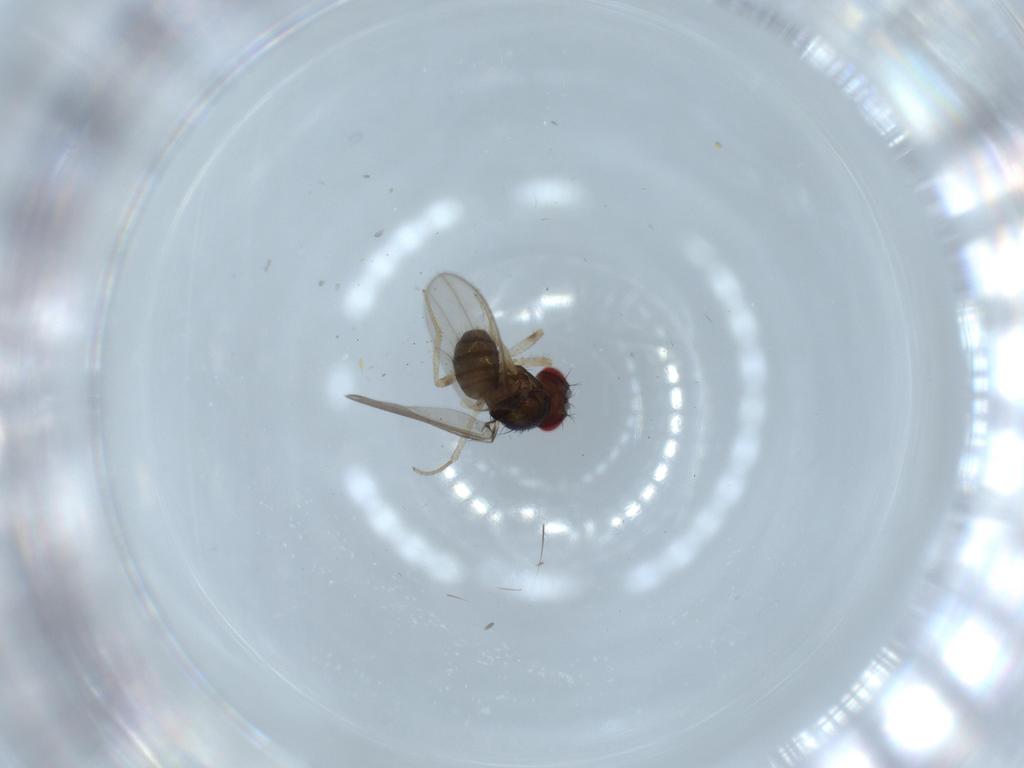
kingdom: Animalia
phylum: Arthropoda
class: Insecta
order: Diptera
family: Drosophilidae
